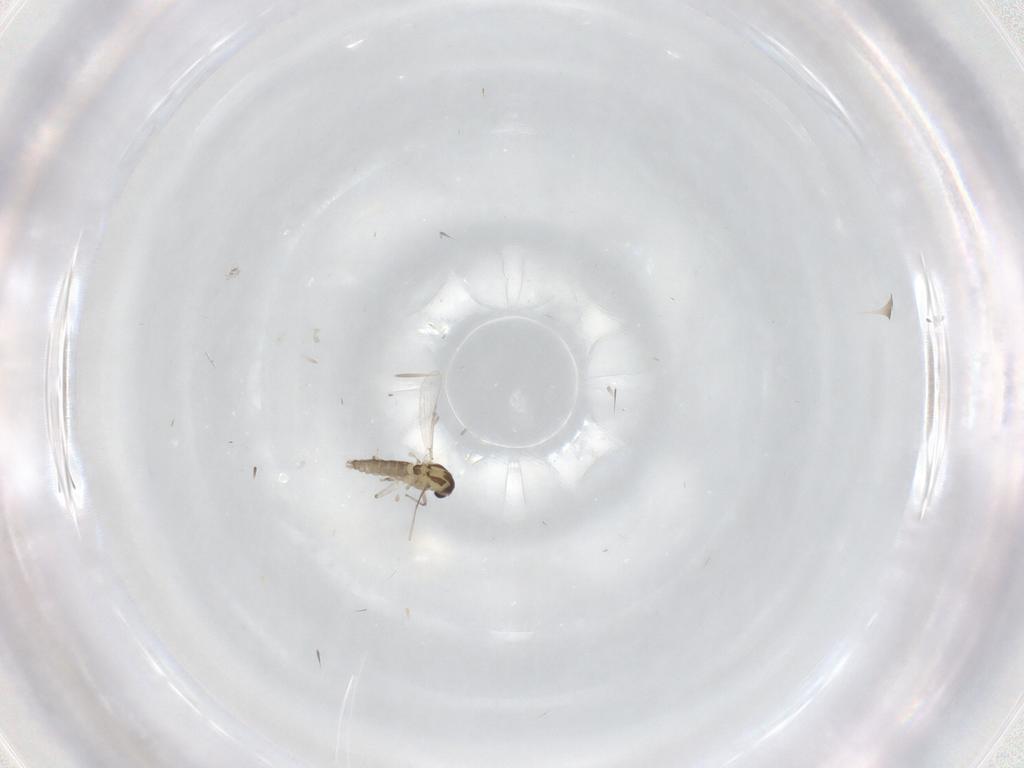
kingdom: Animalia
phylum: Arthropoda
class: Insecta
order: Diptera
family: Chironomidae
